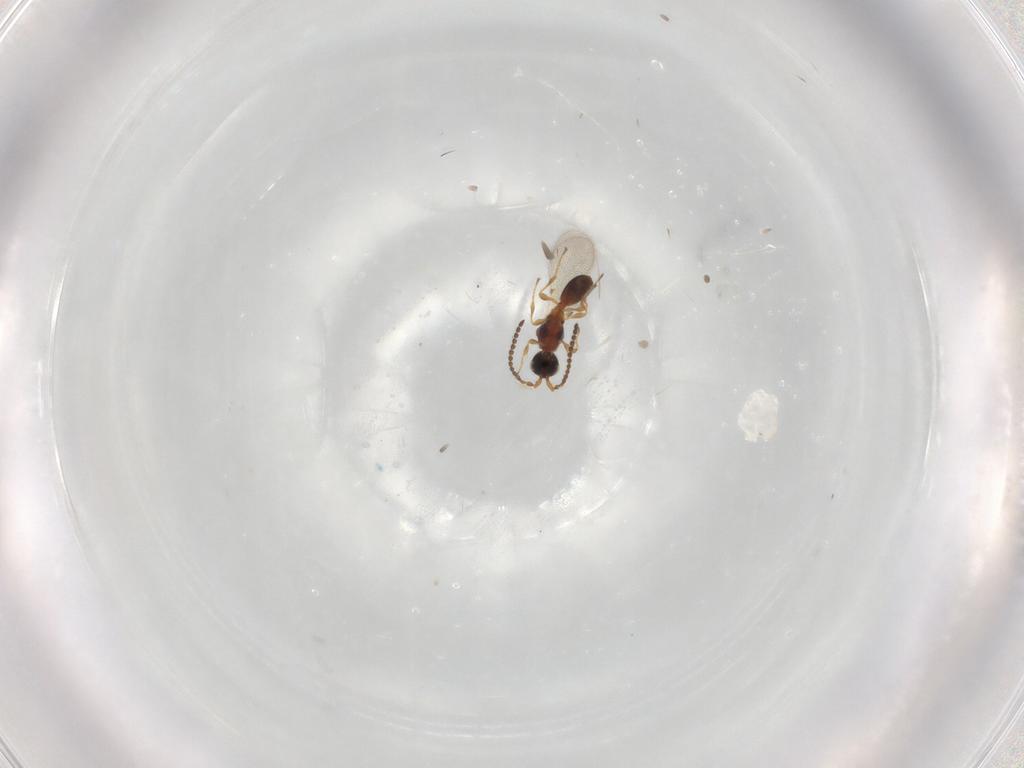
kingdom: Animalia
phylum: Arthropoda
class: Insecta
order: Hymenoptera
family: Diapriidae
